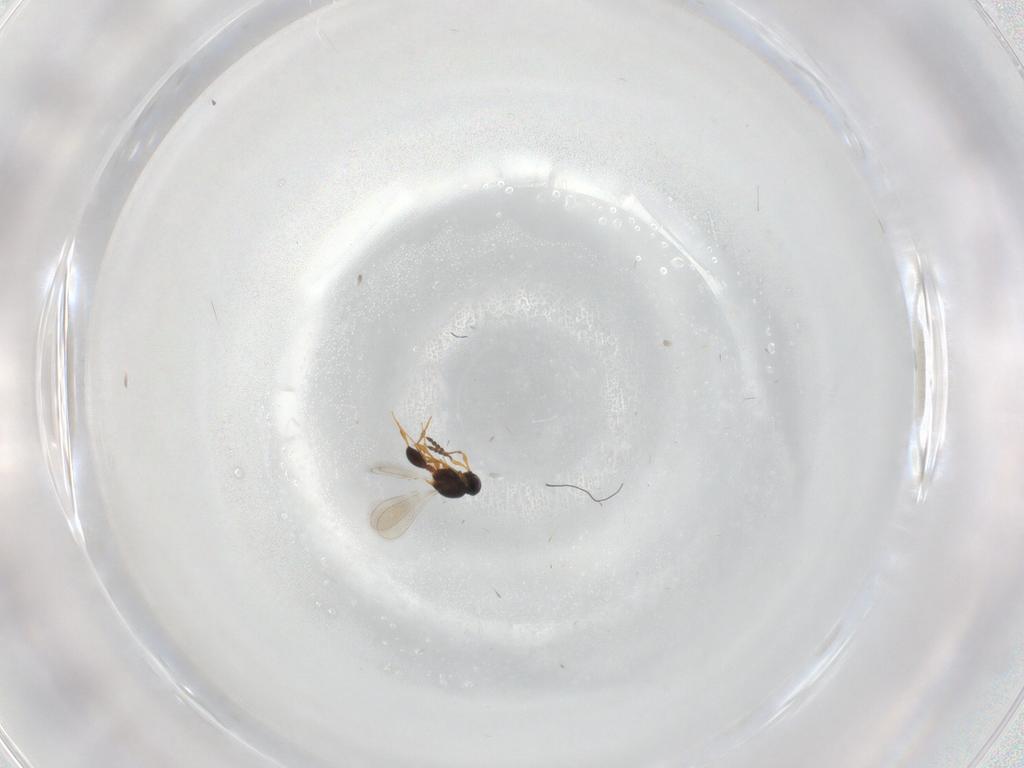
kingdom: Animalia
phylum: Arthropoda
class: Insecta
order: Hymenoptera
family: Platygastridae
